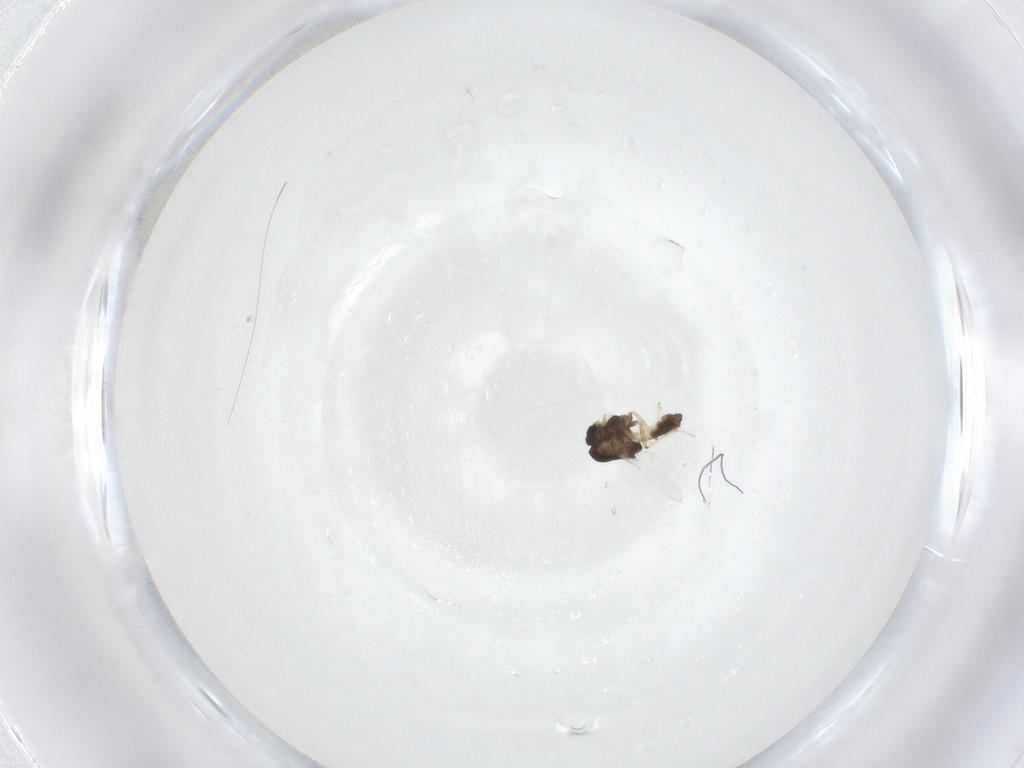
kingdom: Animalia
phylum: Arthropoda
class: Insecta
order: Diptera
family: Chironomidae
